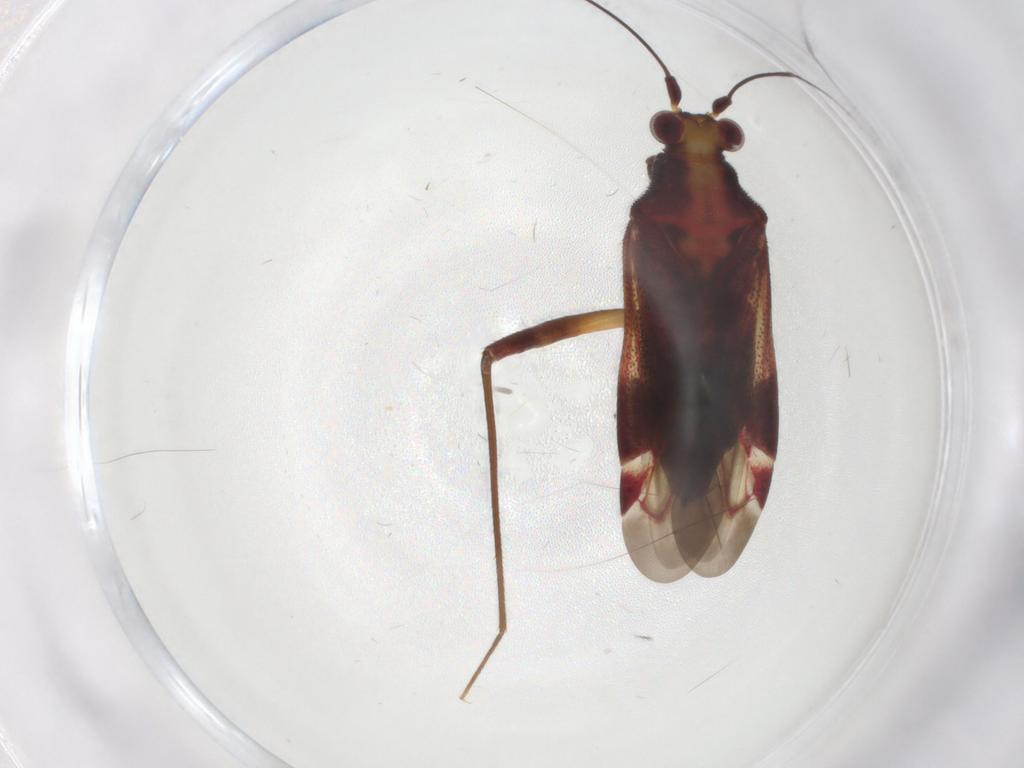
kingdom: Animalia
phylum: Arthropoda
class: Insecta
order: Hemiptera
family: Miridae
